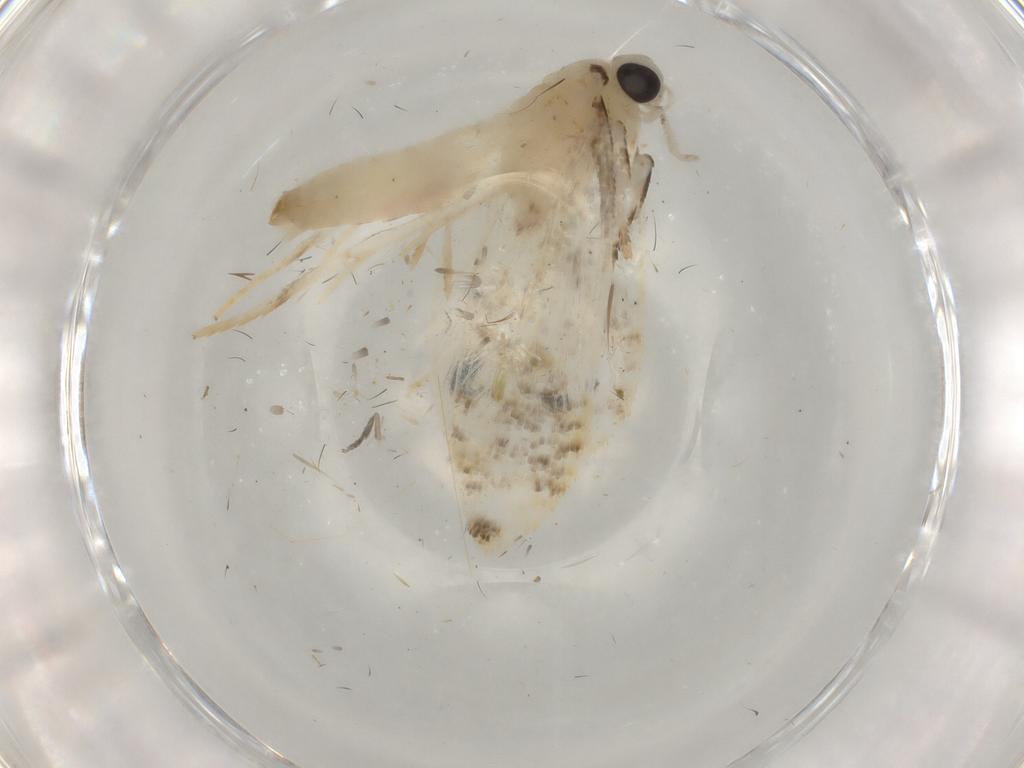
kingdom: Animalia
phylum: Arthropoda
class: Insecta
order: Lepidoptera
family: Tineidae
